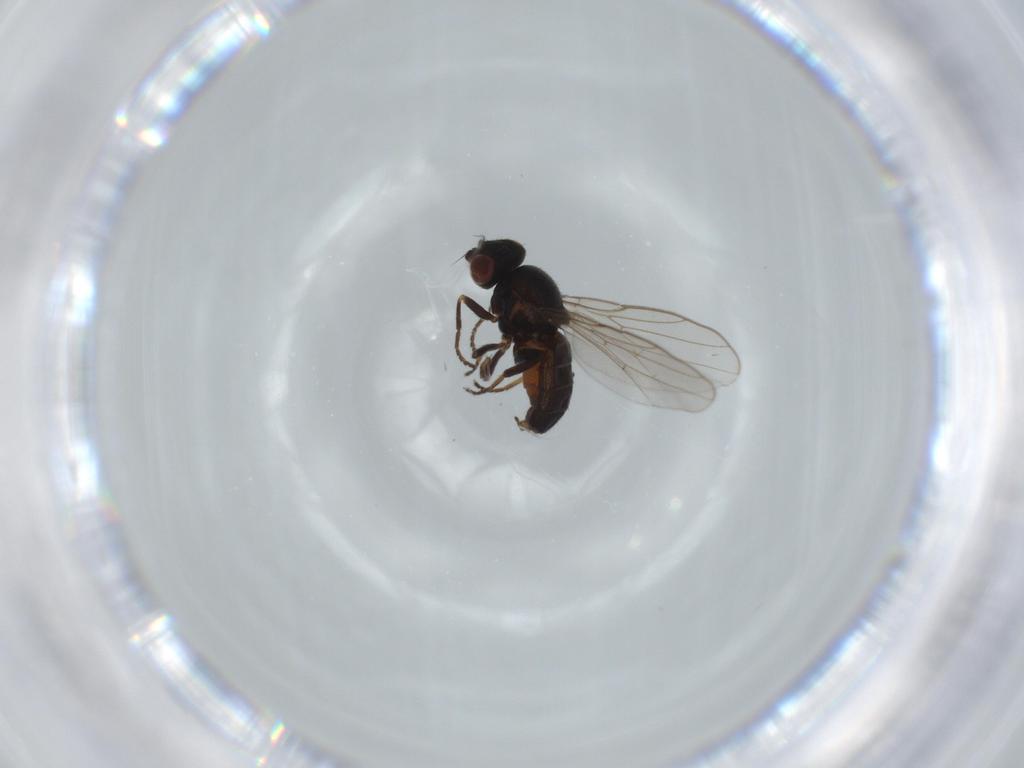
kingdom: Animalia
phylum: Arthropoda
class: Insecta
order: Diptera
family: Chloropidae
